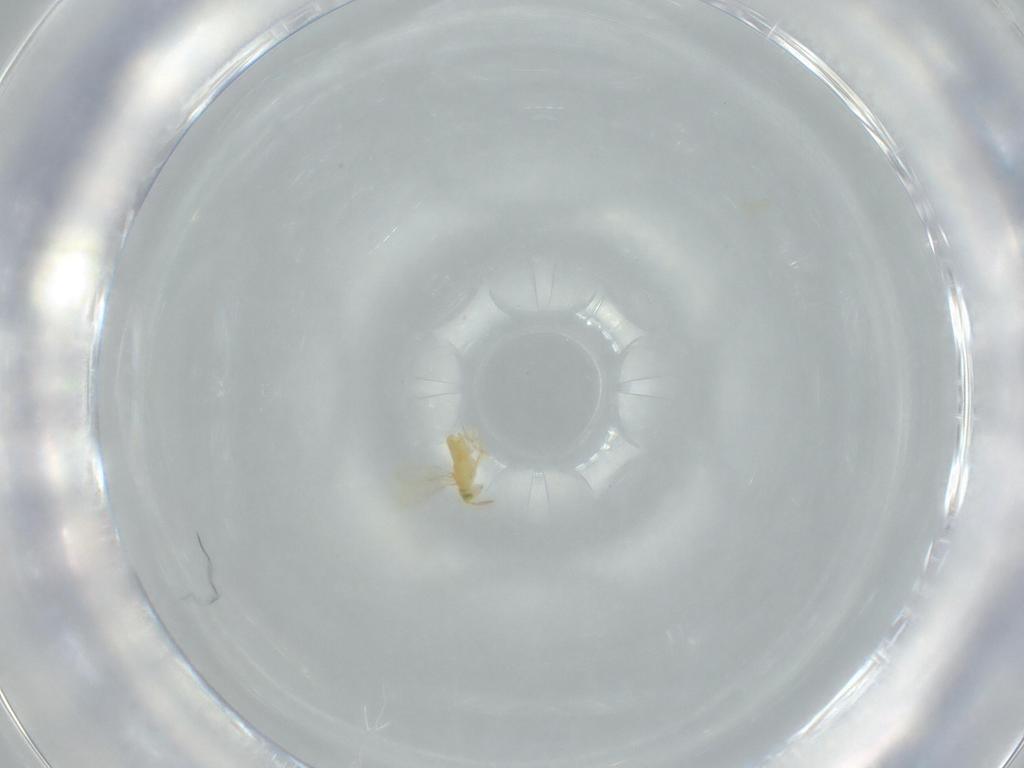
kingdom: Animalia
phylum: Arthropoda
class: Insecta
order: Hymenoptera
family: Aphelinidae
